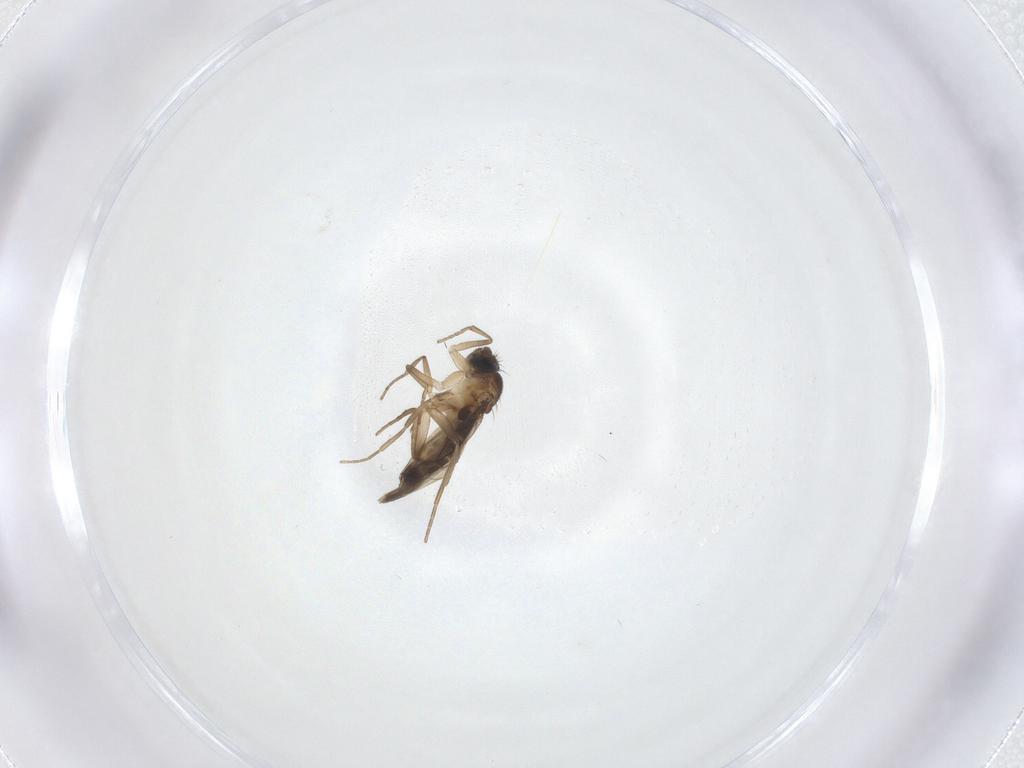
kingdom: Animalia
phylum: Arthropoda
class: Insecta
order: Diptera
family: Phoridae
